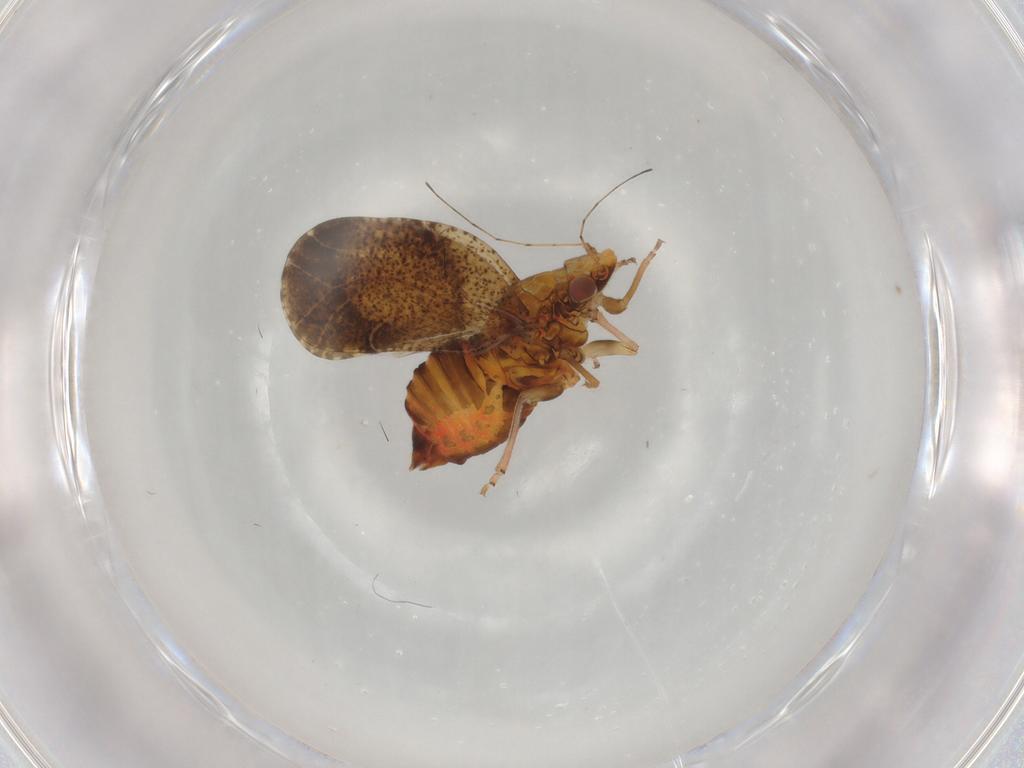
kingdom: Animalia
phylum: Arthropoda
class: Insecta
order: Hemiptera
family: Psyllidae
